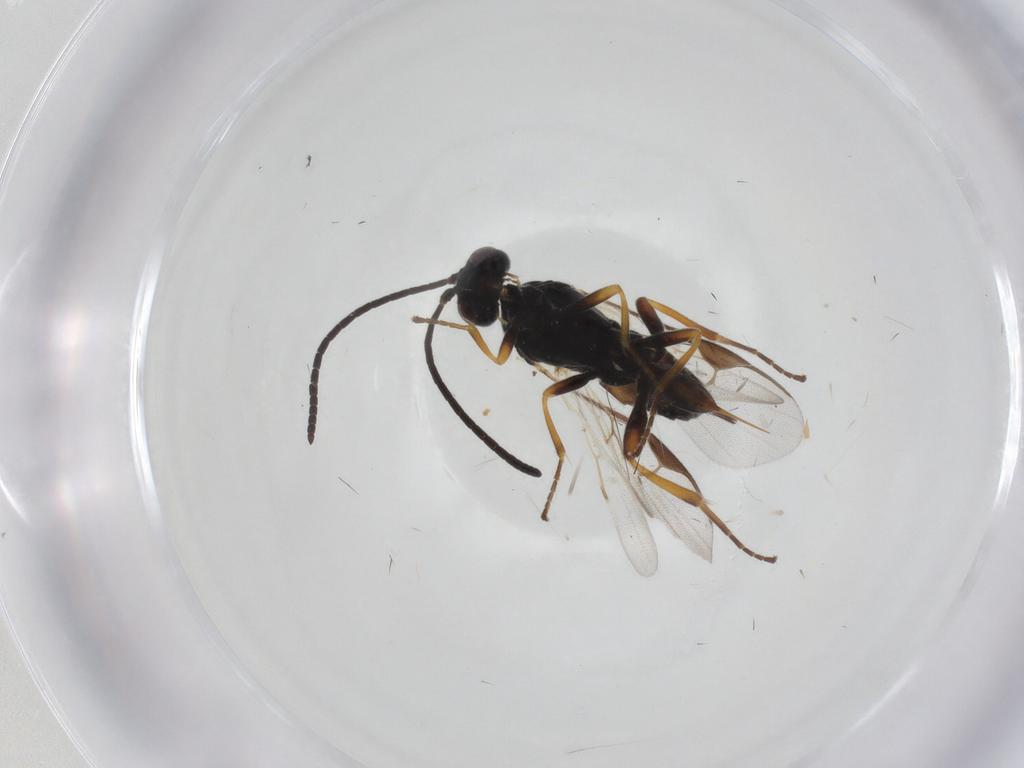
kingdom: Animalia
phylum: Arthropoda
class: Insecta
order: Hymenoptera
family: Braconidae
